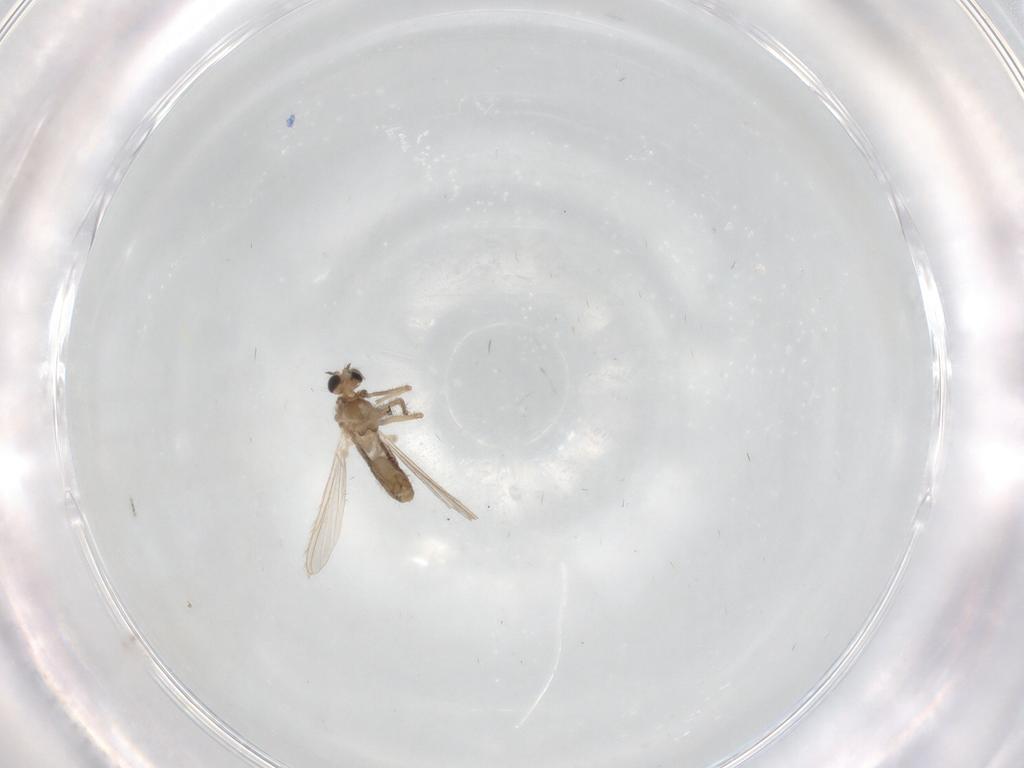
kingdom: Animalia
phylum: Arthropoda
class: Insecta
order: Diptera
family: Chironomidae
